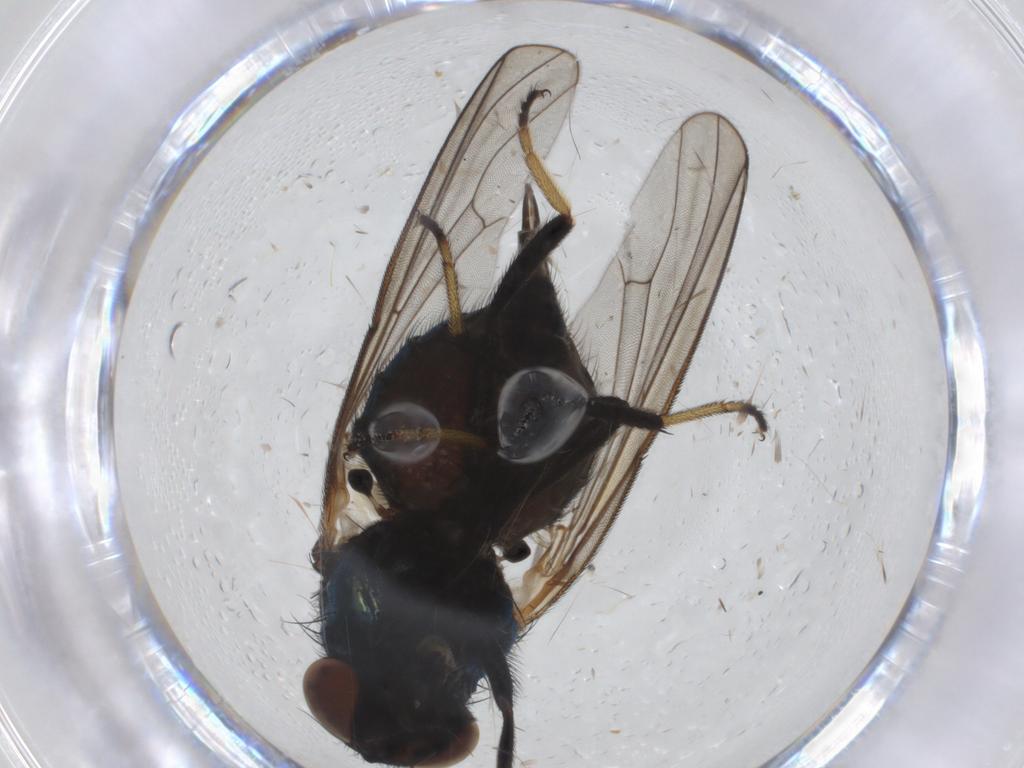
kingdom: Animalia
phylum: Arthropoda
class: Insecta
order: Diptera
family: Lonchaeidae
